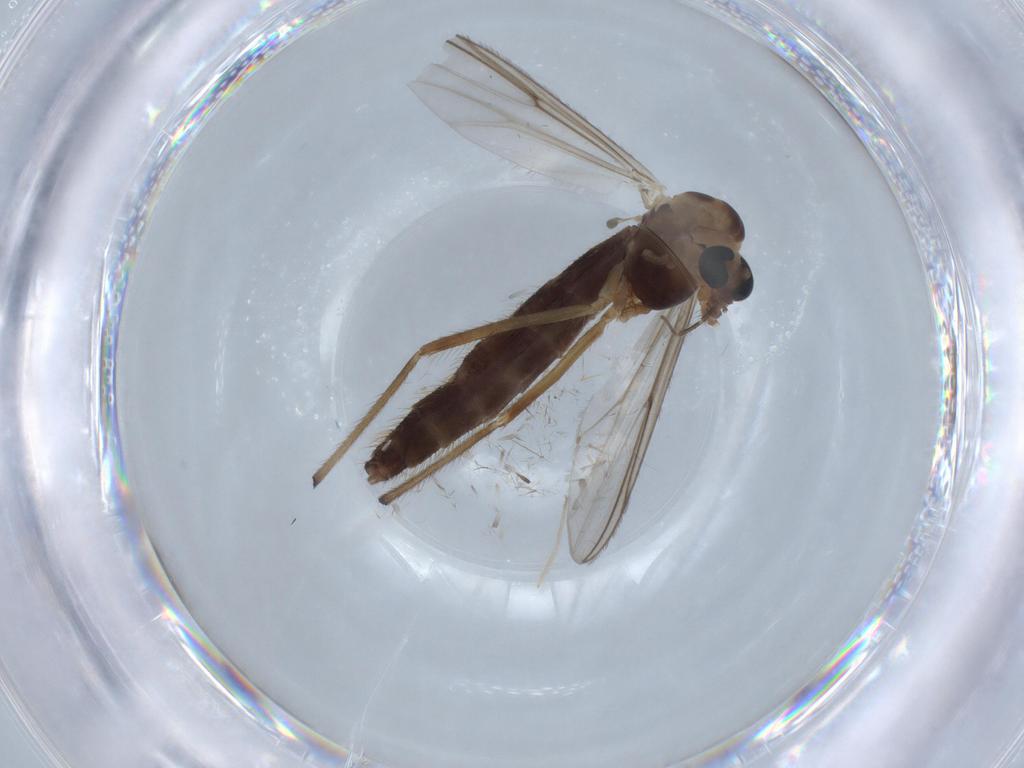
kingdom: Animalia
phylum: Arthropoda
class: Insecta
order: Diptera
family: Chironomidae
